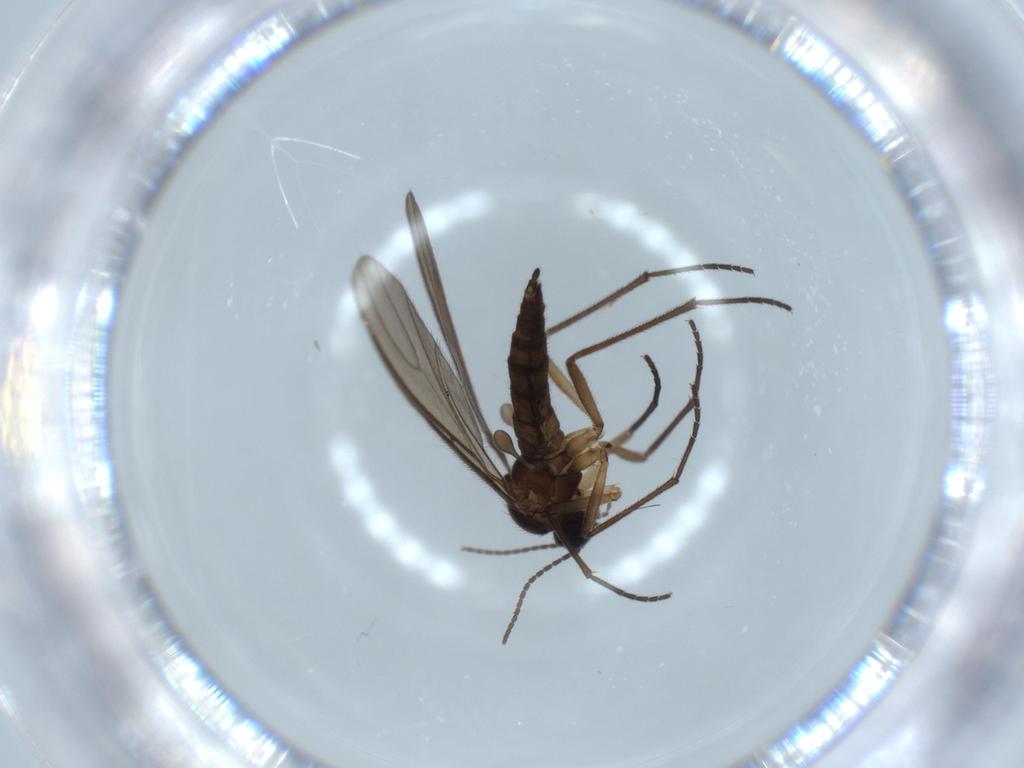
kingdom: Animalia
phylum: Arthropoda
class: Insecta
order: Diptera
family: Sciaridae
